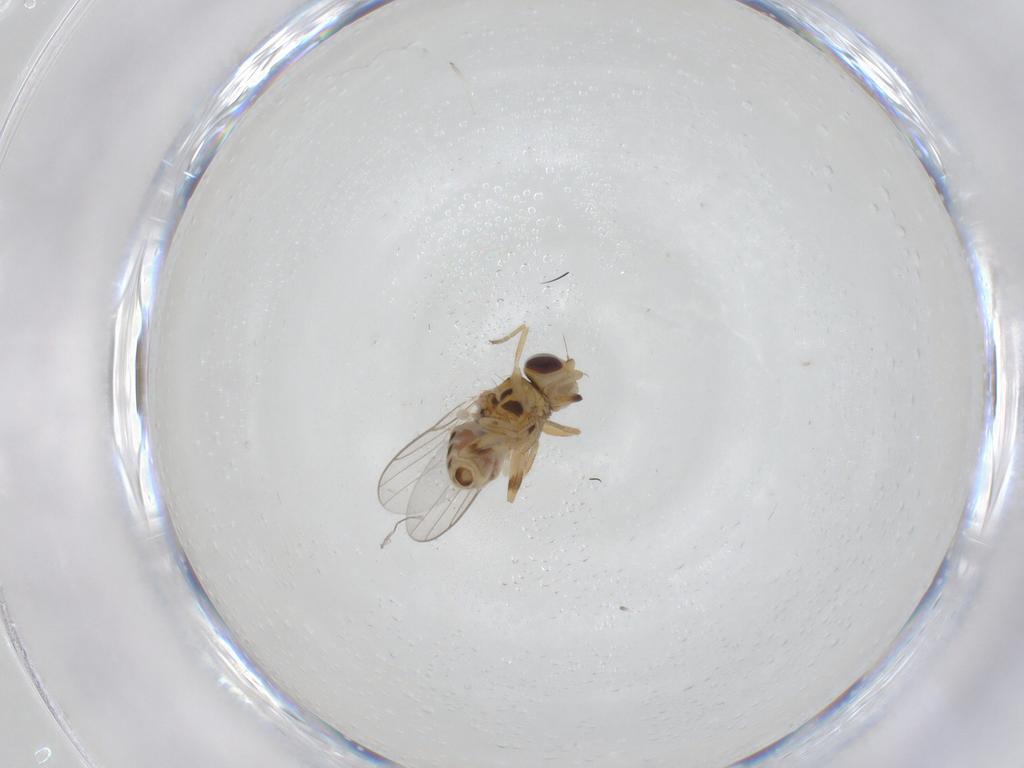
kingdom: Animalia
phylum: Arthropoda
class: Insecta
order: Diptera
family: Chloropidae
